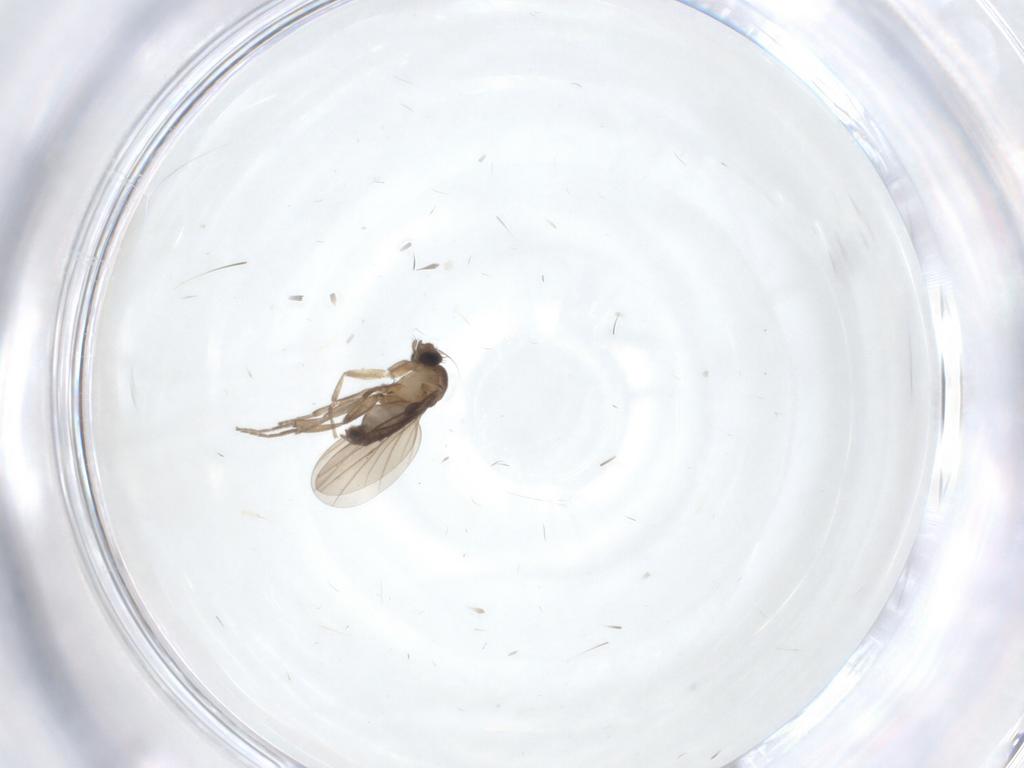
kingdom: Animalia
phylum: Arthropoda
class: Insecta
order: Diptera
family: Phoridae
